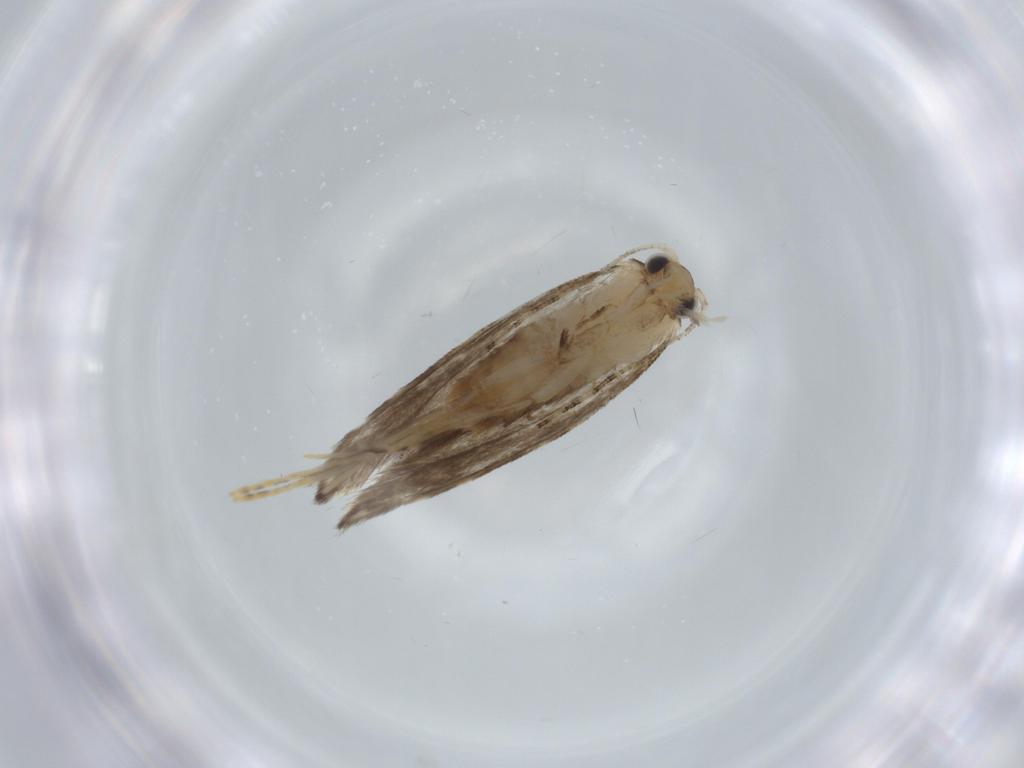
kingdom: Animalia
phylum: Arthropoda
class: Insecta
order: Lepidoptera
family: Tineidae
